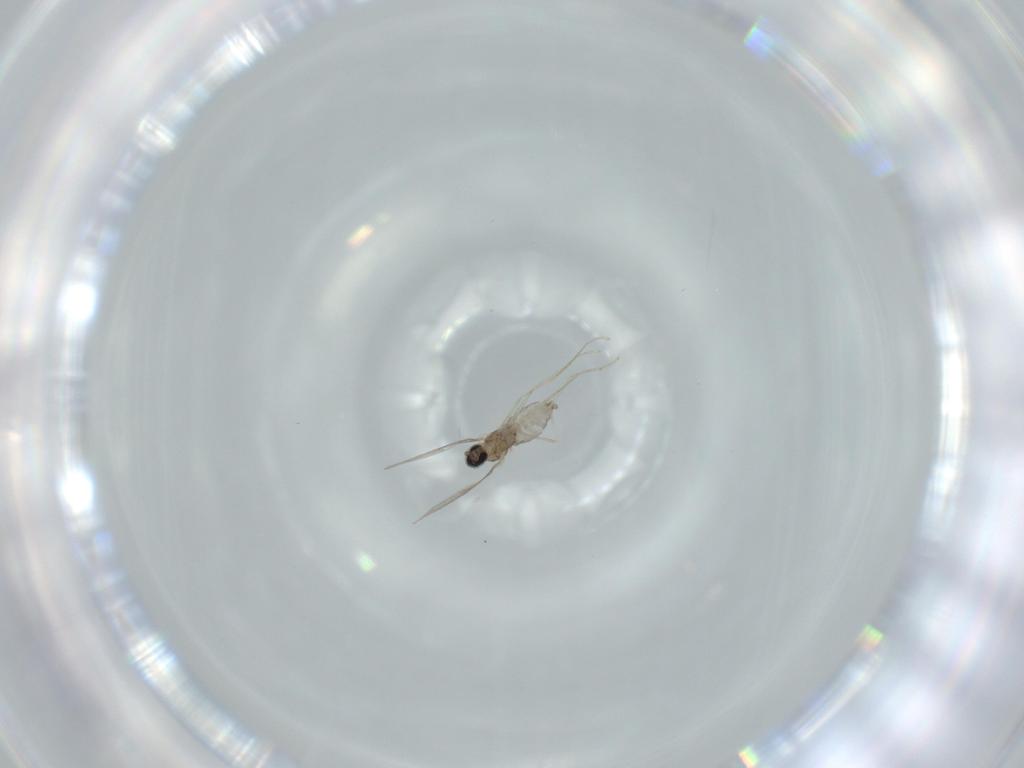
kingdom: Animalia
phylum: Arthropoda
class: Insecta
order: Diptera
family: Cecidomyiidae
